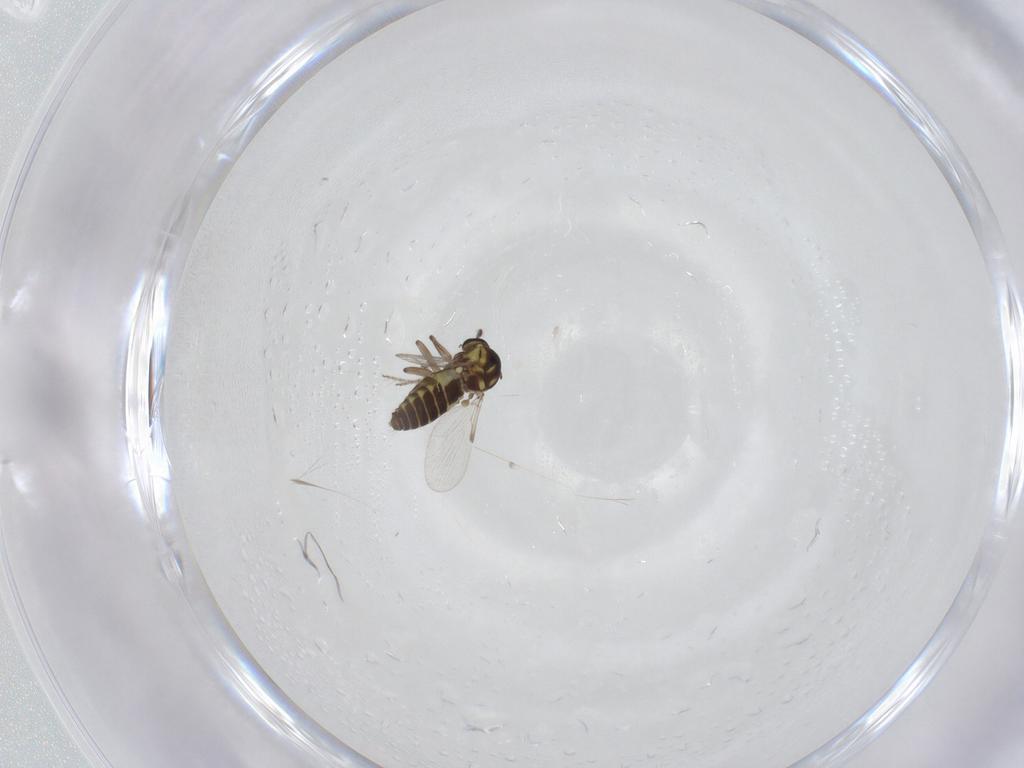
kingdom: Animalia
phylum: Arthropoda
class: Insecta
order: Diptera
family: Ceratopogonidae
